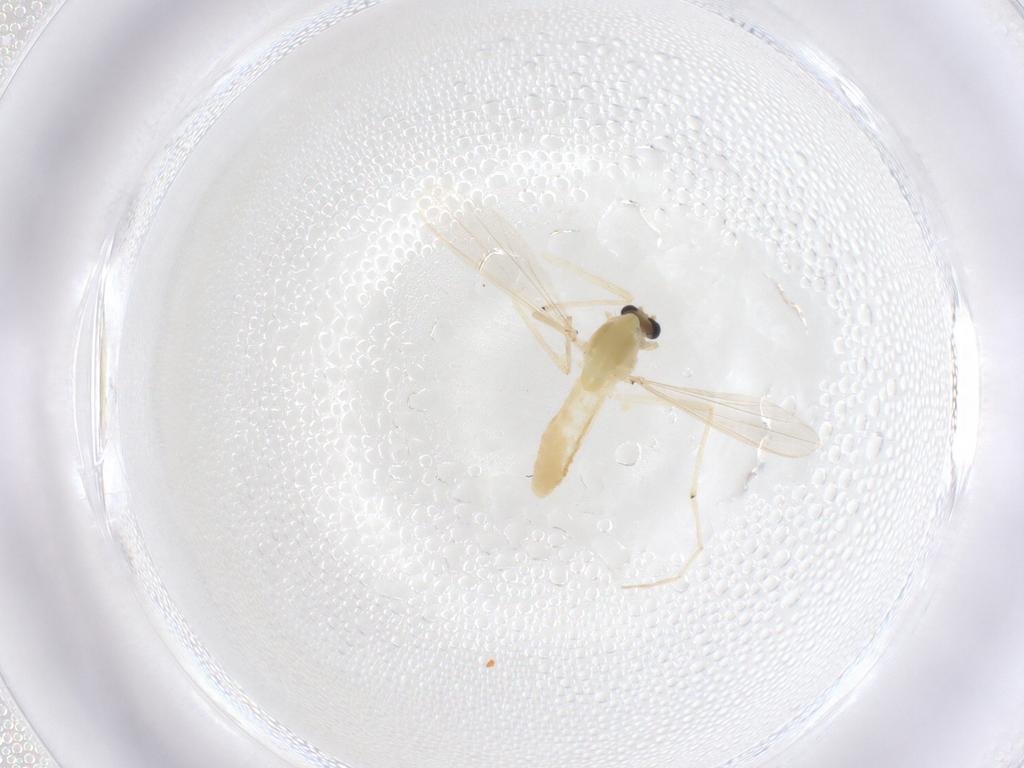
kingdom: Animalia
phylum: Arthropoda
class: Insecta
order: Diptera
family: Chironomidae
